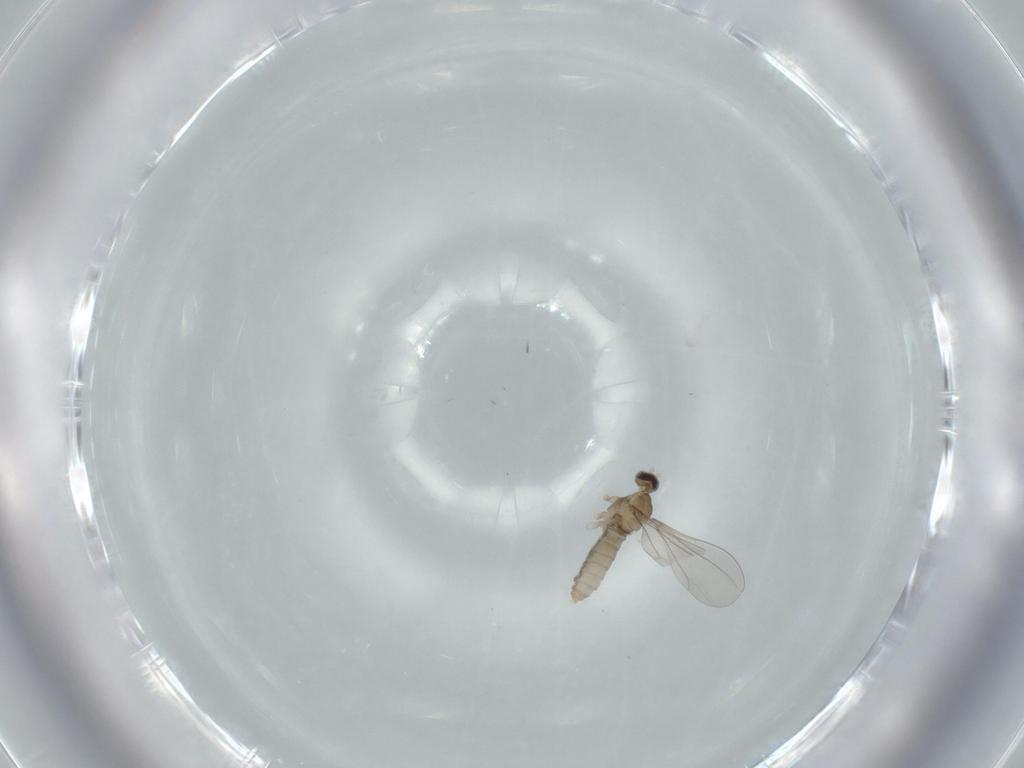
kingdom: Animalia
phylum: Arthropoda
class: Insecta
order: Diptera
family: Cecidomyiidae
